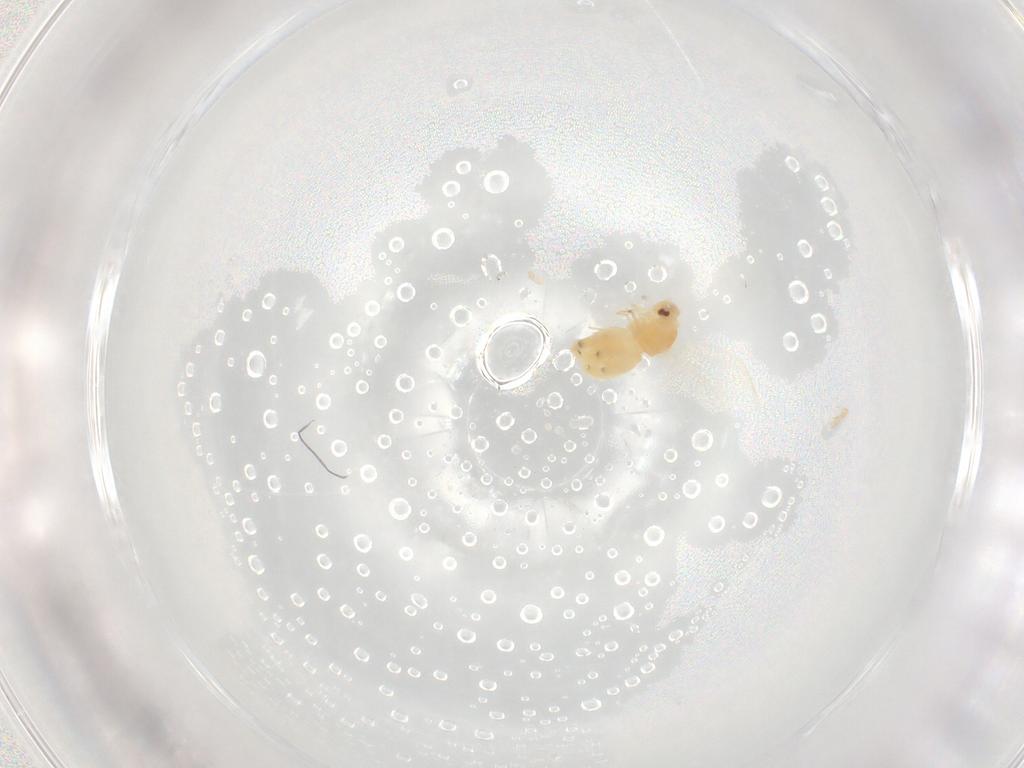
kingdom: Animalia
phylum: Arthropoda
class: Insecta
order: Hemiptera
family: Aleyrodidae
